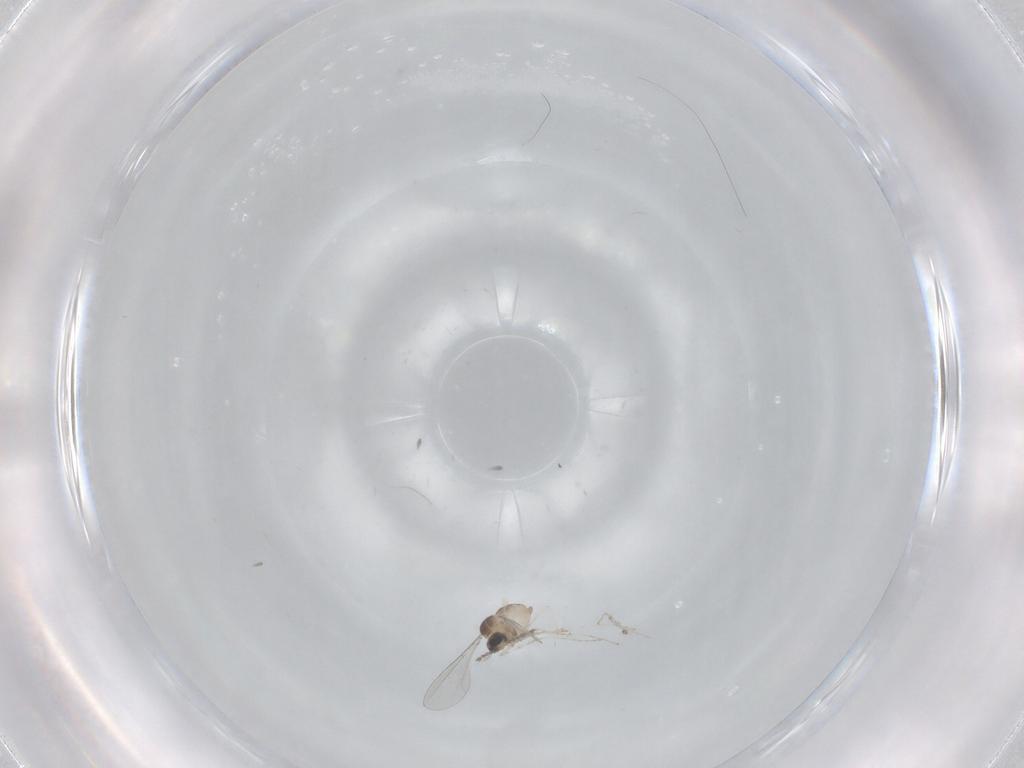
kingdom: Animalia
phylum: Arthropoda
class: Insecta
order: Diptera
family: Cecidomyiidae
